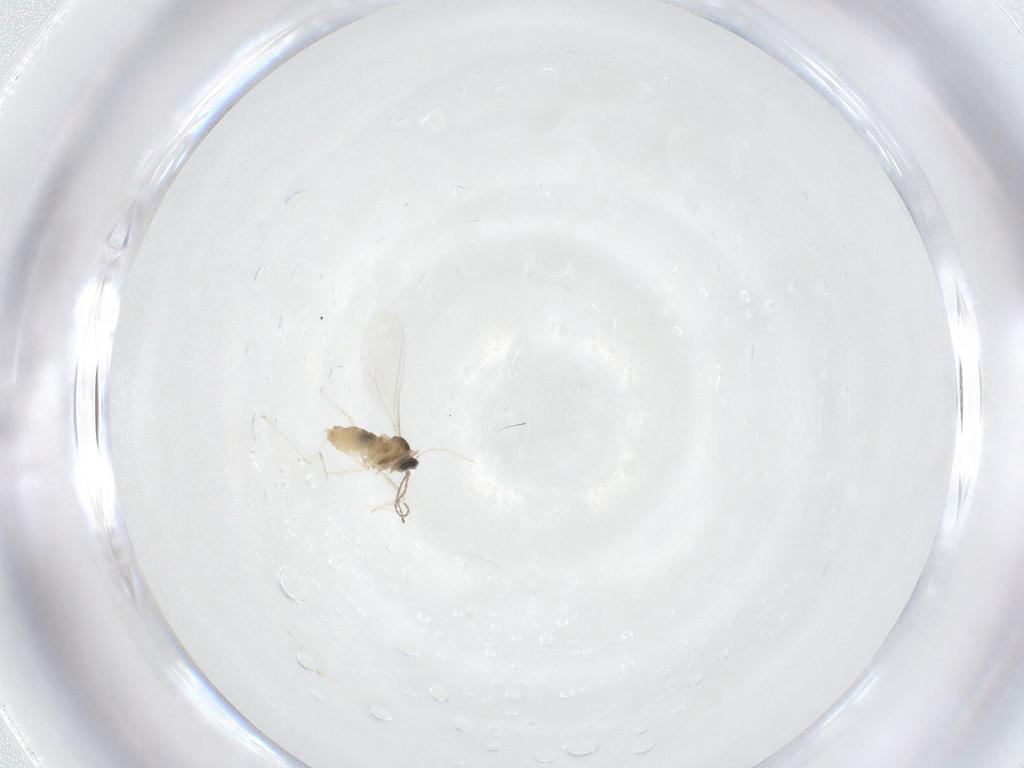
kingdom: Animalia
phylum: Arthropoda
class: Insecta
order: Diptera
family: Cecidomyiidae
